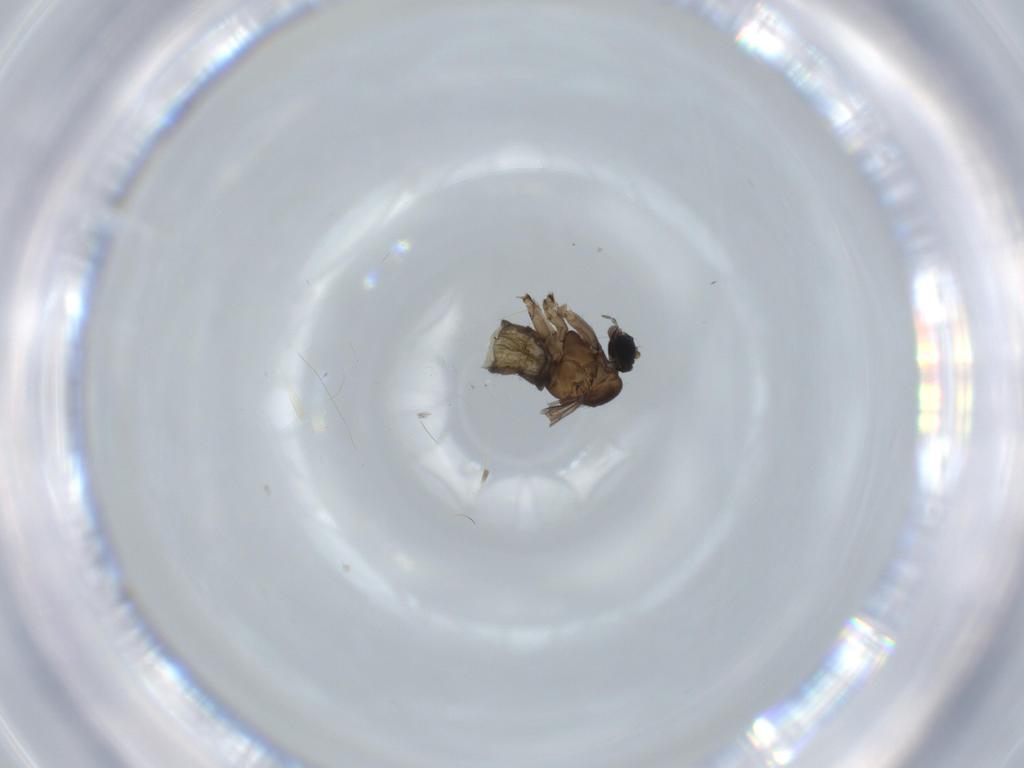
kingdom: Animalia
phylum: Arthropoda
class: Insecta
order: Diptera
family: Sciaridae
